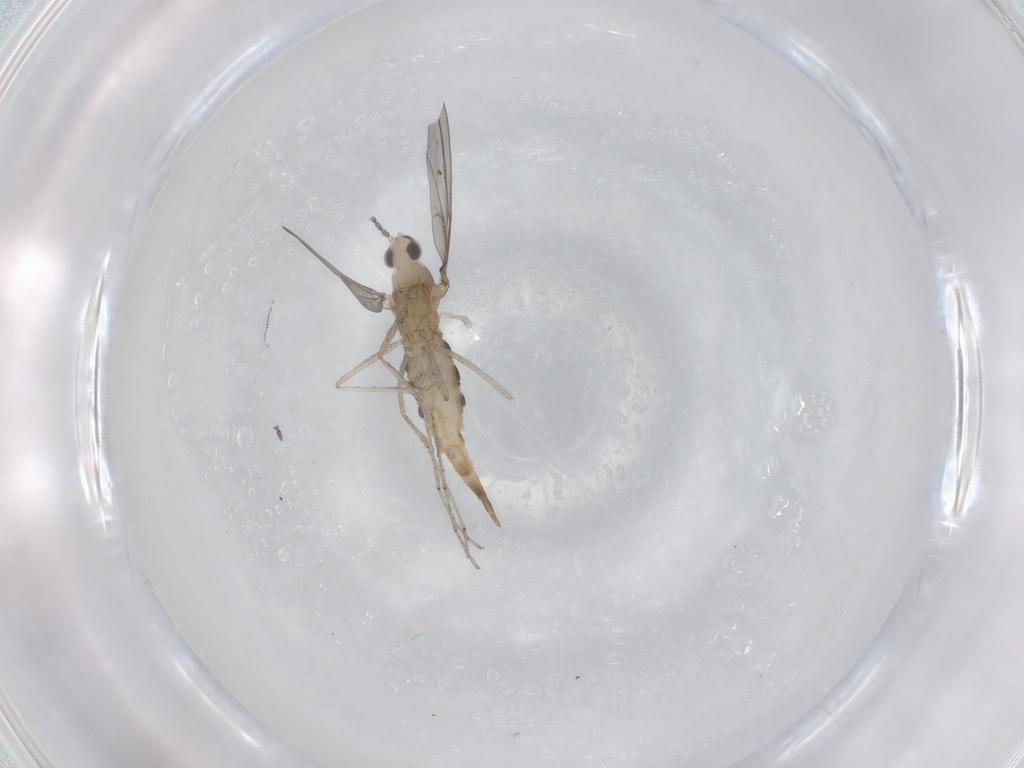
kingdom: Animalia
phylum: Arthropoda
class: Insecta
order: Diptera
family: Cecidomyiidae
